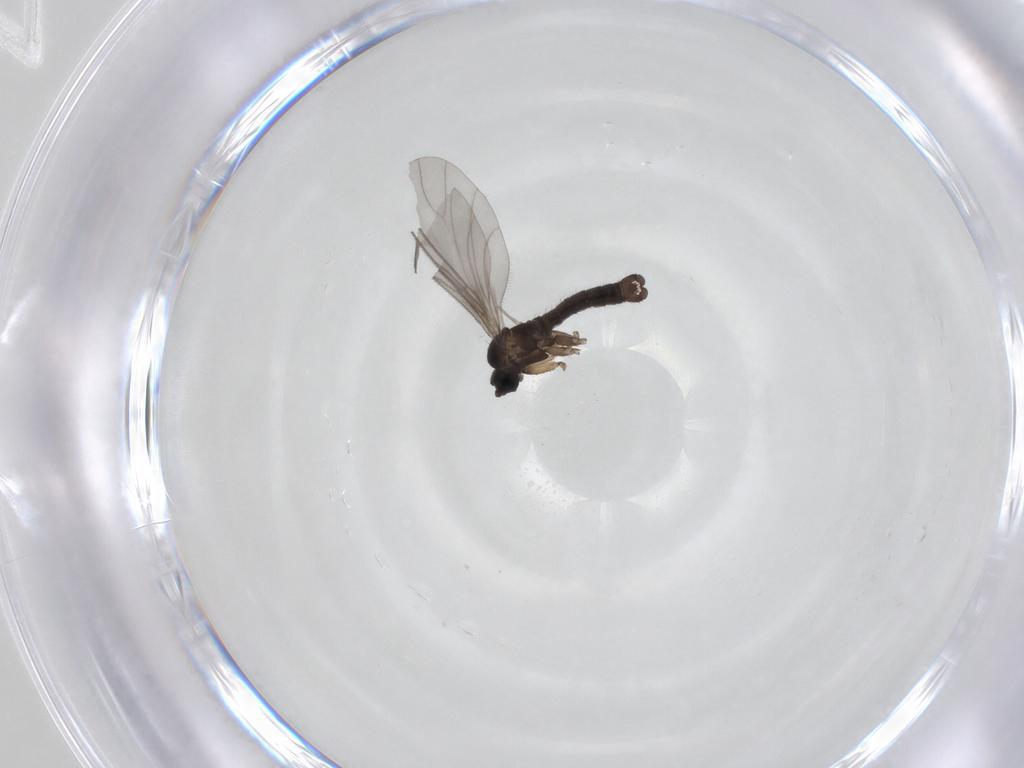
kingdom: Animalia
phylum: Arthropoda
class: Insecta
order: Diptera
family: Sciaridae
